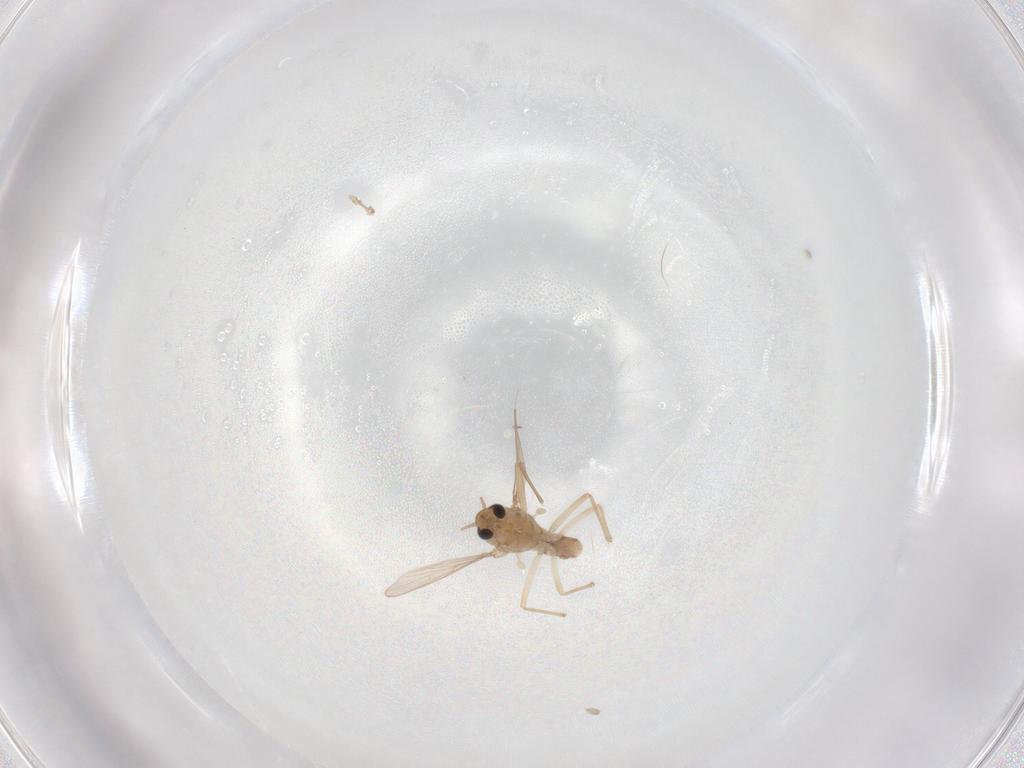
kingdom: Animalia
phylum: Arthropoda
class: Insecta
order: Diptera
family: Chironomidae
